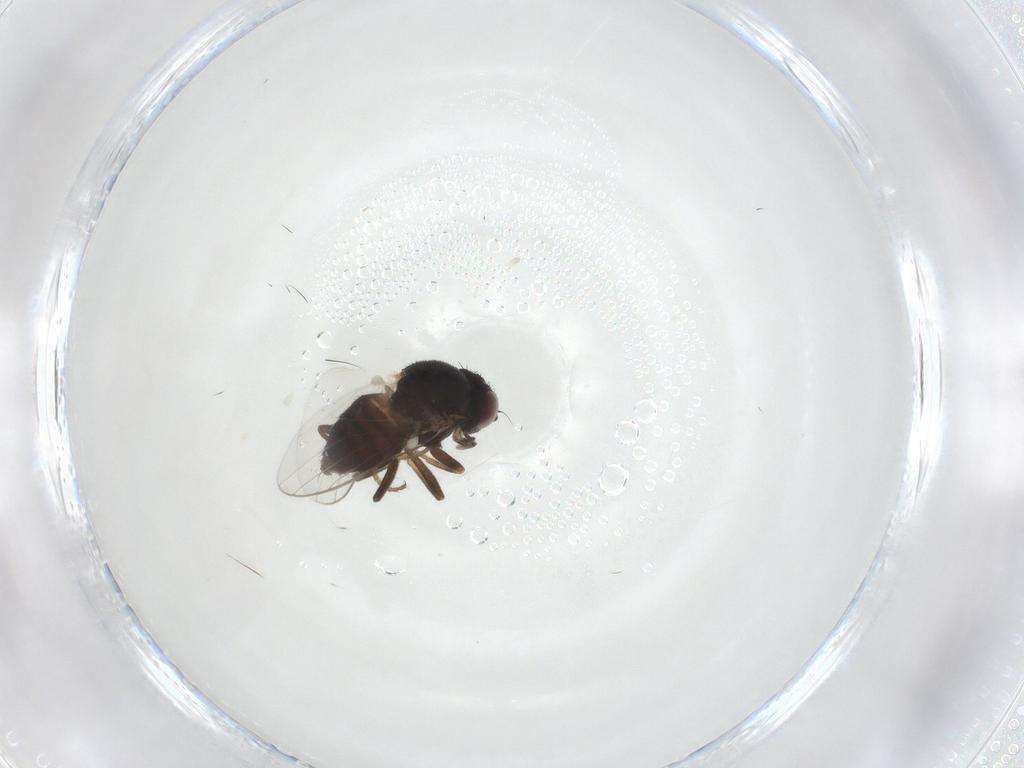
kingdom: Animalia
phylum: Arthropoda
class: Insecta
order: Diptera
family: Chloropidae
